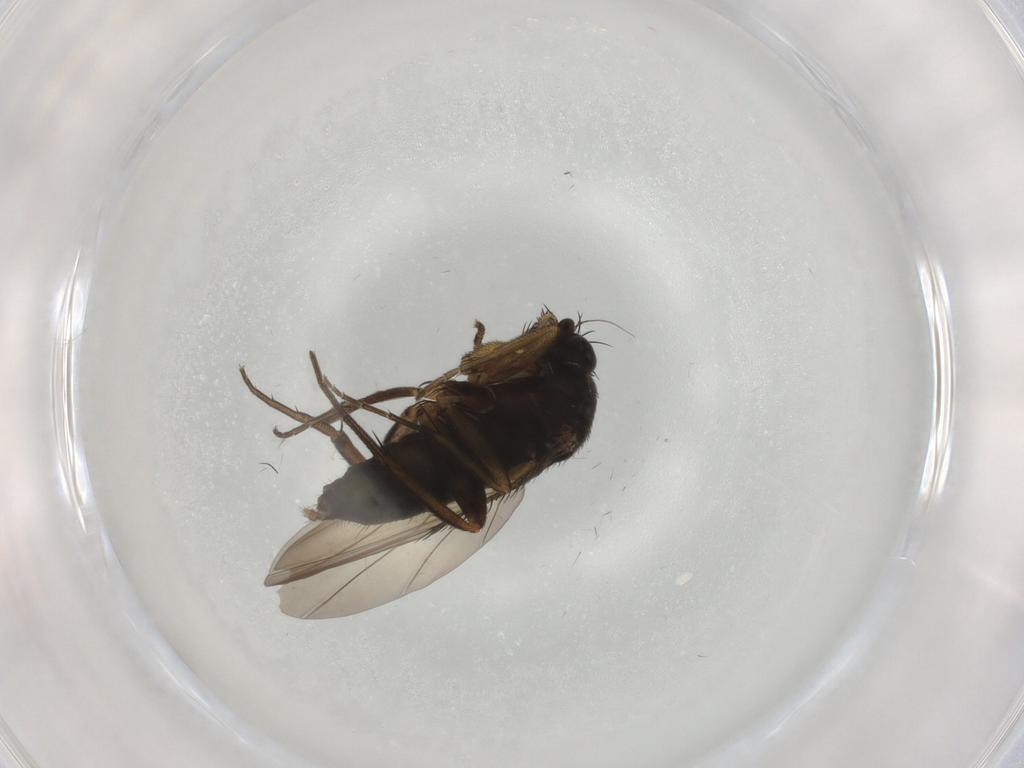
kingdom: Animalia
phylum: Arthropoda
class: Insecta
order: Diptera
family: Phoridae
